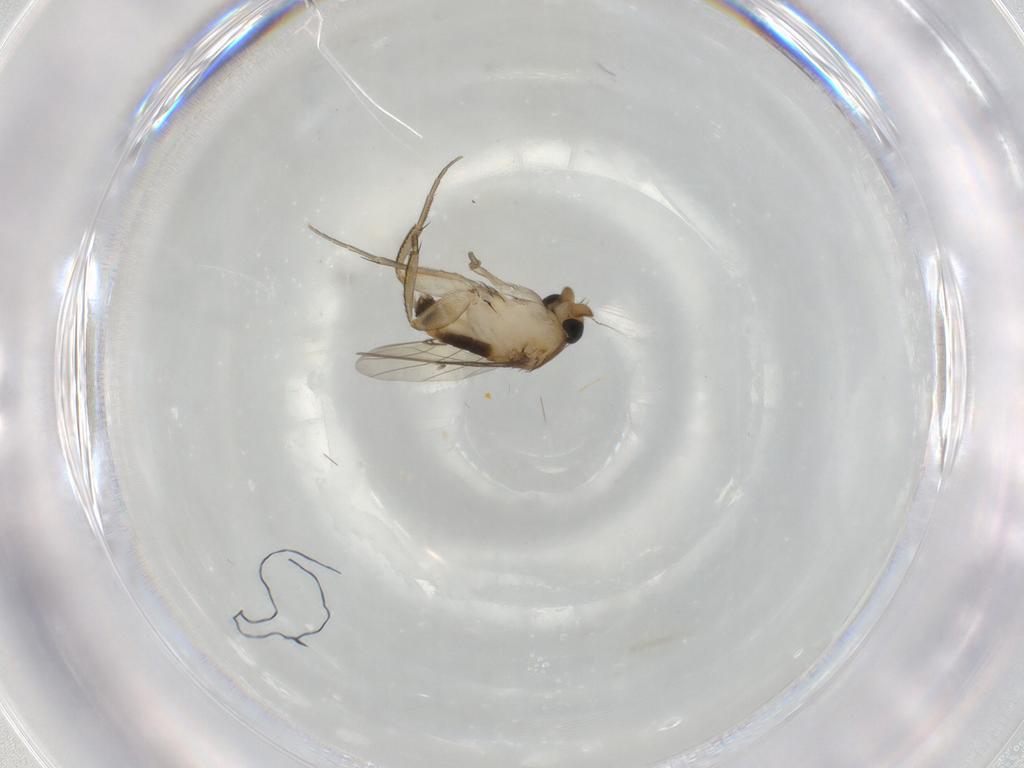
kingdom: Animalia
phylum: Arthropoda
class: Insecta
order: Diptera
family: Phoridae
